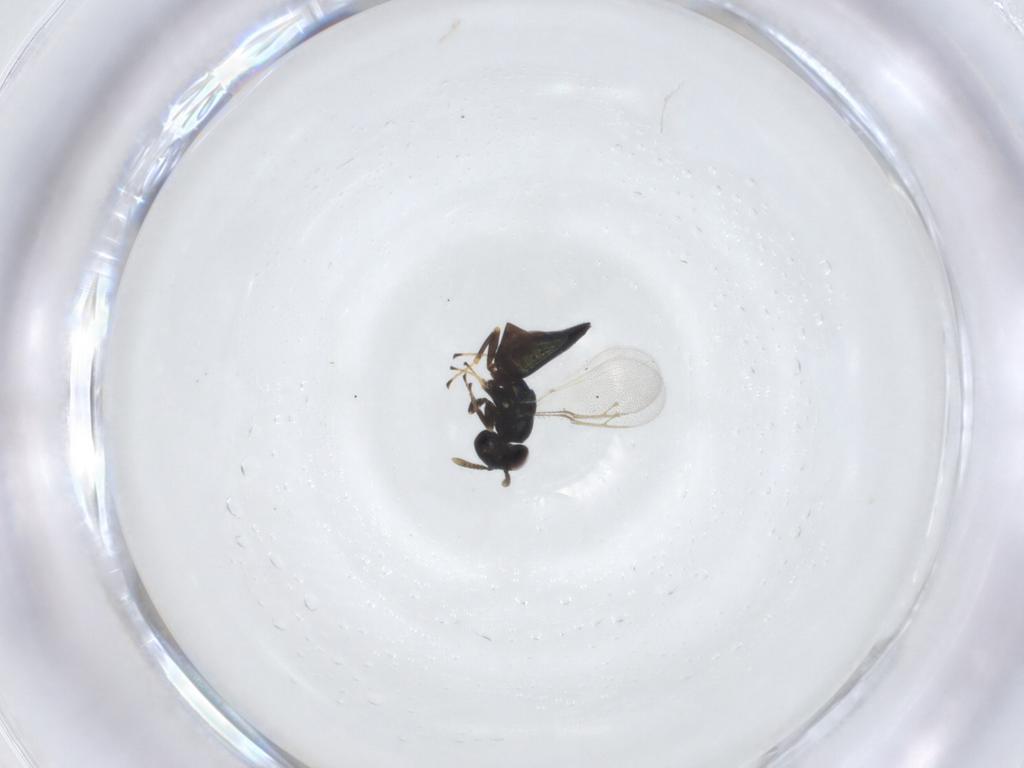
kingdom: Animalia
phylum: Arthropoda
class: Insecta
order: Hymenoptera
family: Pteromalidae
